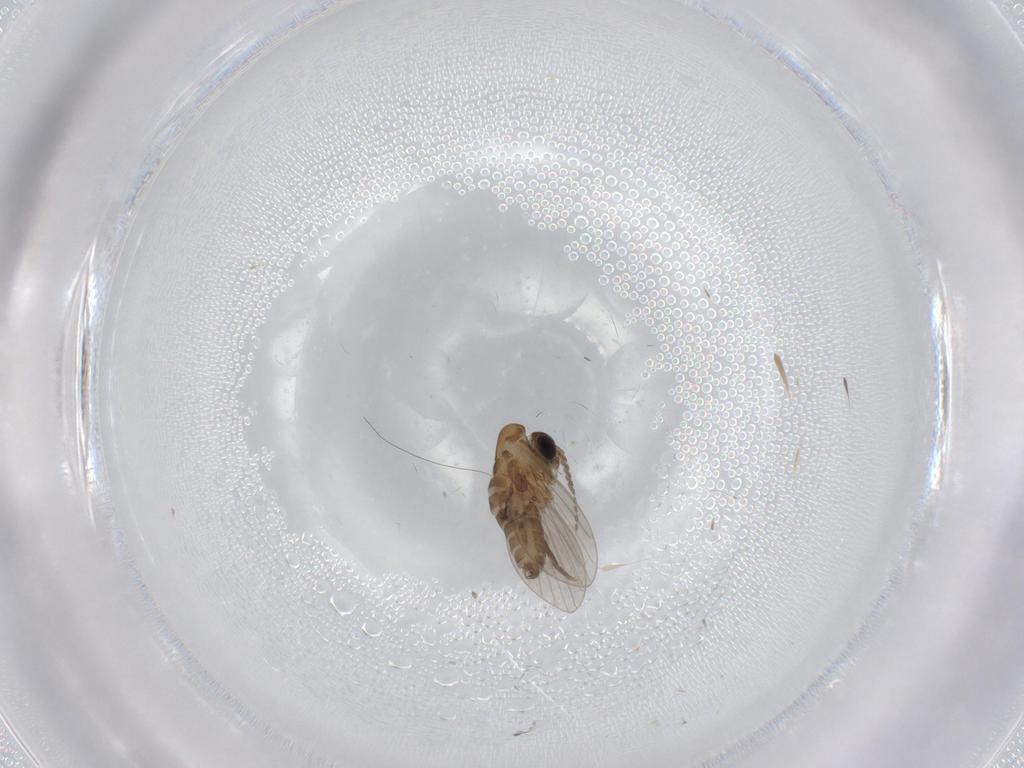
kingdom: Animalia
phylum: Arthropoda
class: Insecta
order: Diptera
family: Psychodidae
